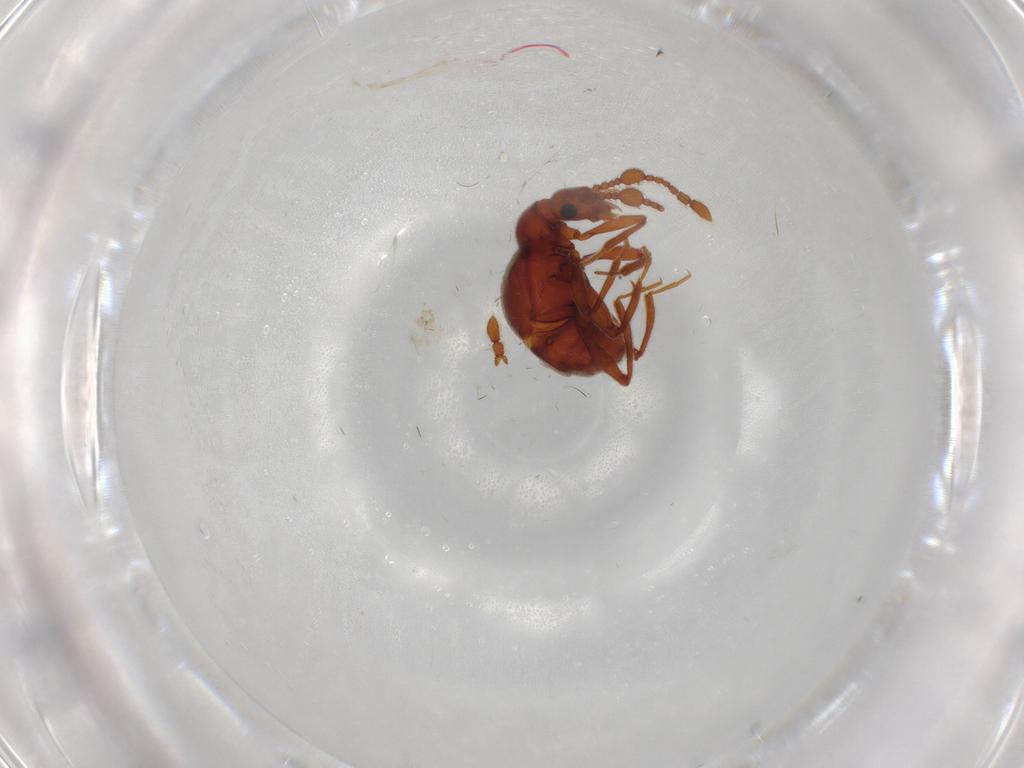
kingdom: Animalia
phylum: Arthropoda
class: Insecta
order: Coleoptera
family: Staphylinidae
